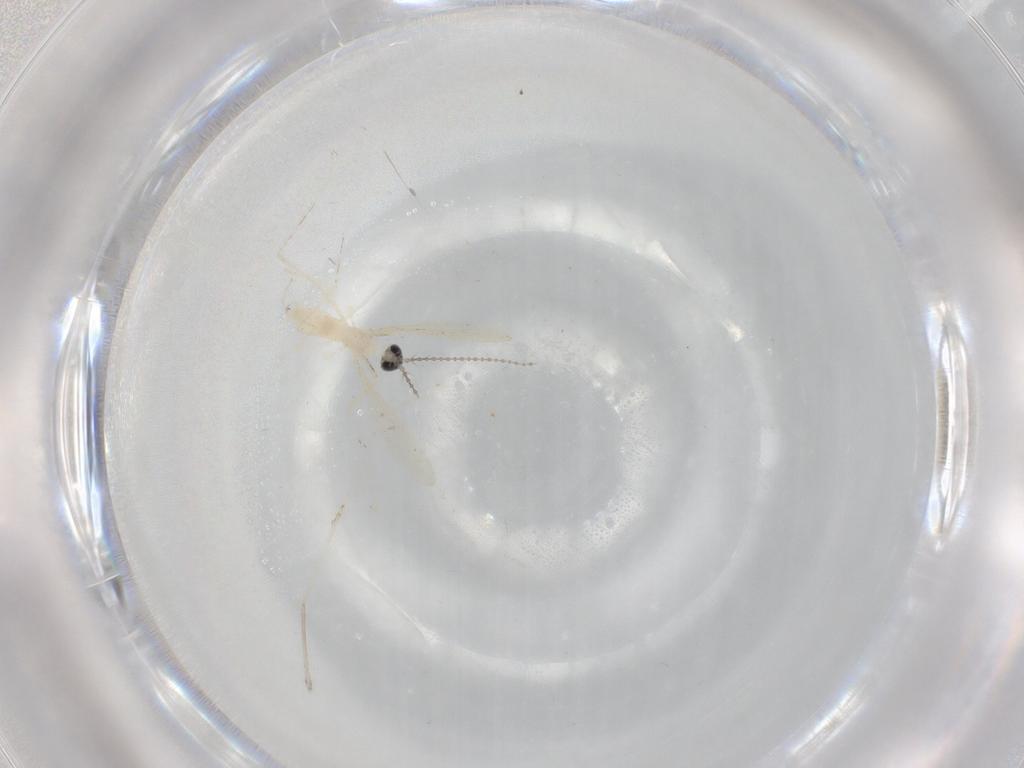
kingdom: Animalia
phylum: Arthropoda
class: Insecta
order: Diptera
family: Cecidomyiidae
